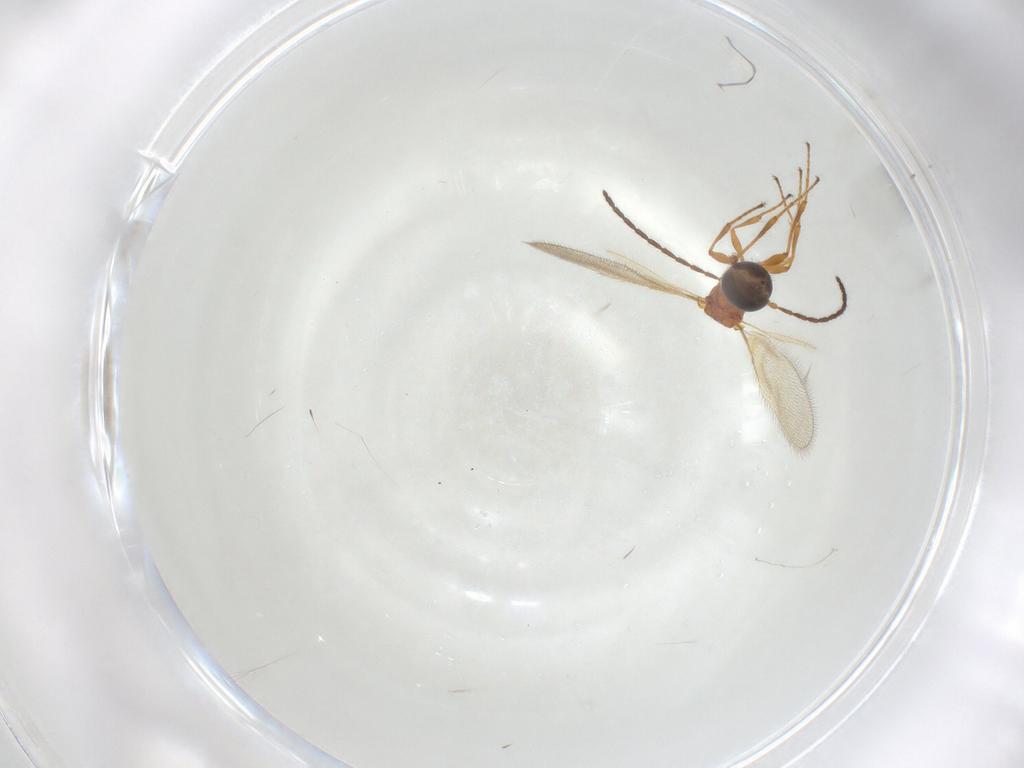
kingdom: Animalia
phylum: Arthropoda
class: Insecta
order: Hymenoptera
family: Diapriidae
